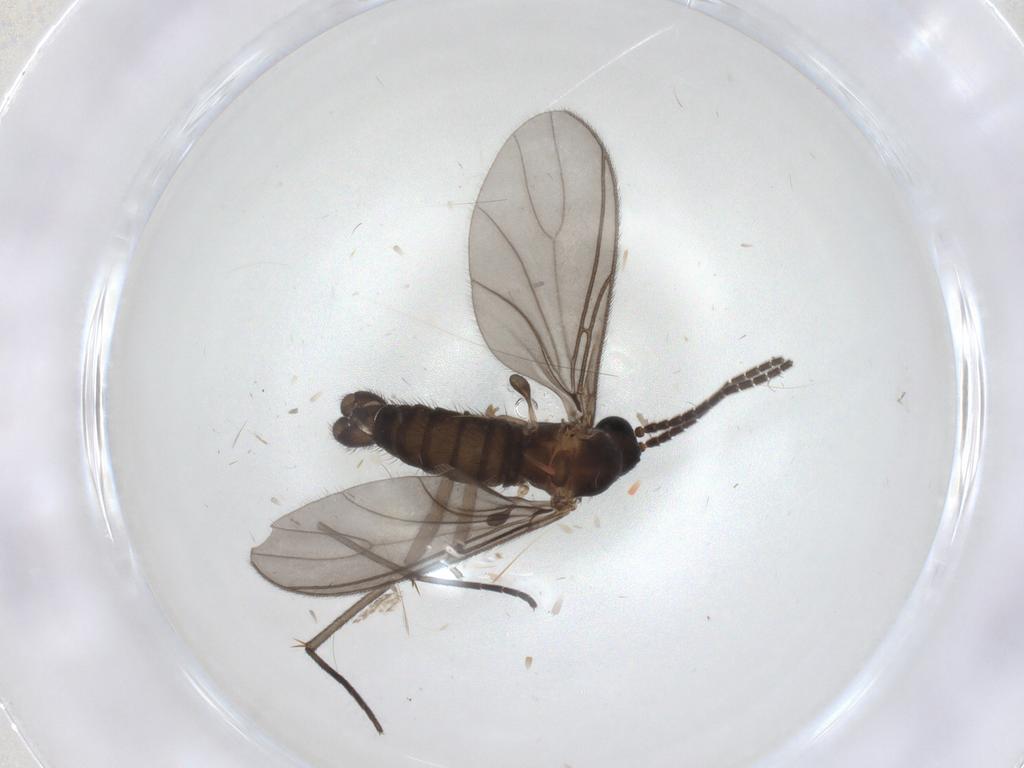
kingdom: Animalia
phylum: Arthropoda
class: Insecta
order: Diptera
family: Sciaridae
